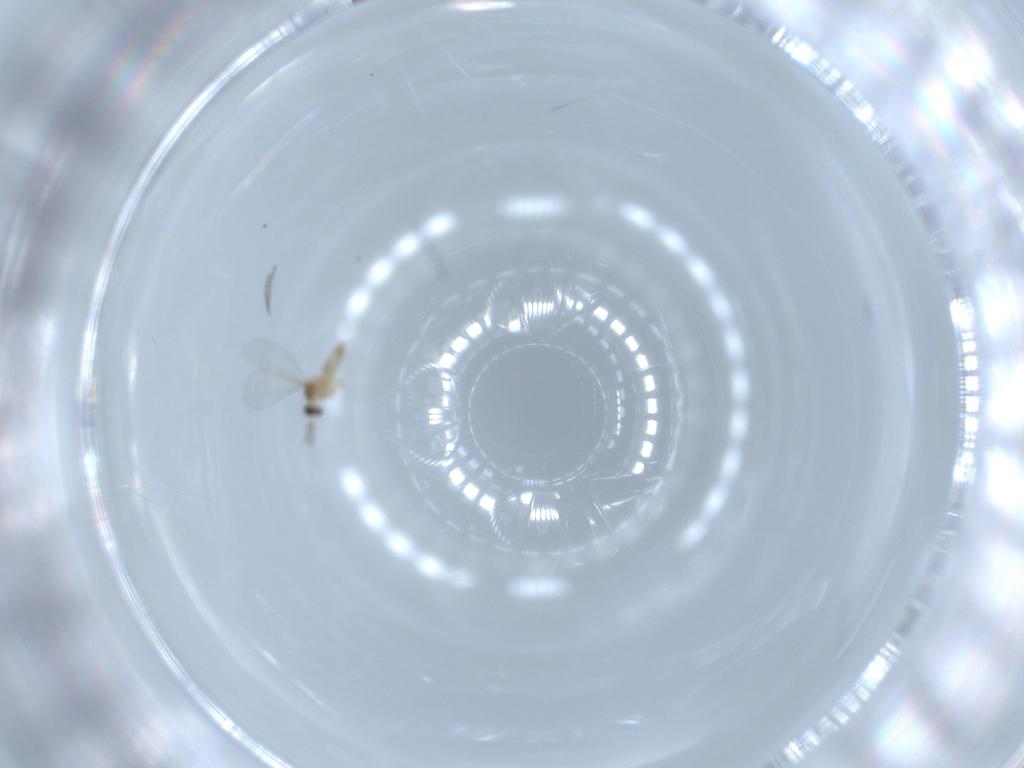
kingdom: Animalia
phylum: Arthropoda
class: Insecta
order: Diptera
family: Cecidomyiidae
